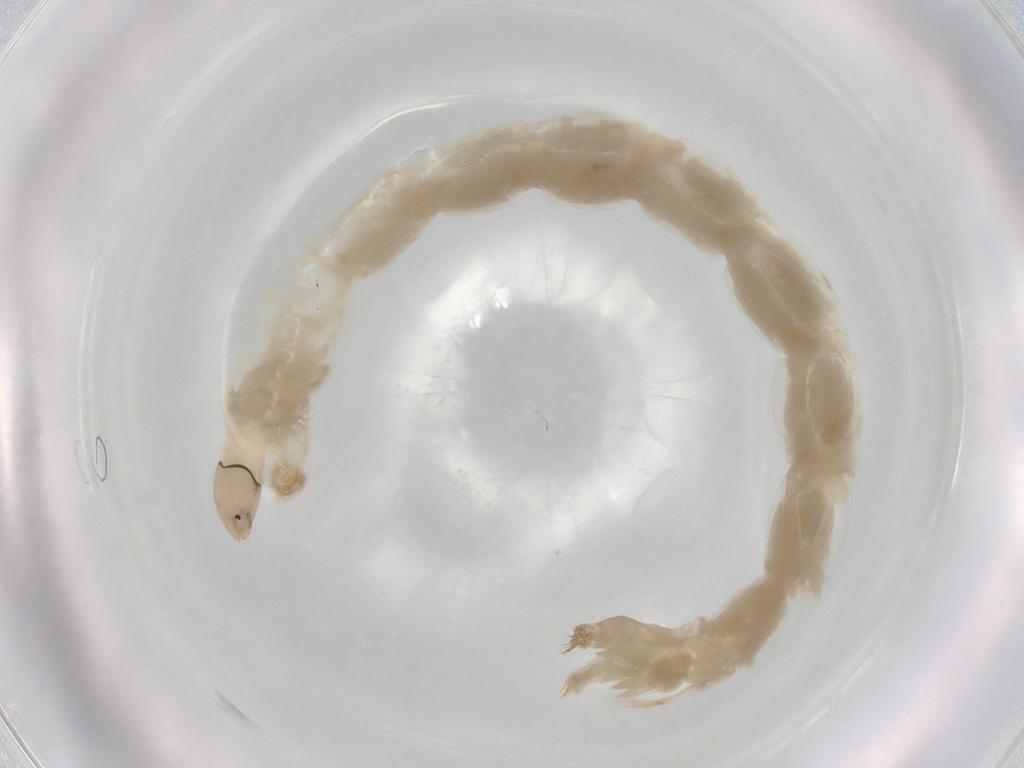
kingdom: Animalia
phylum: Arthropoda
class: Insecta
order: Diptera
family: Chironomidae
